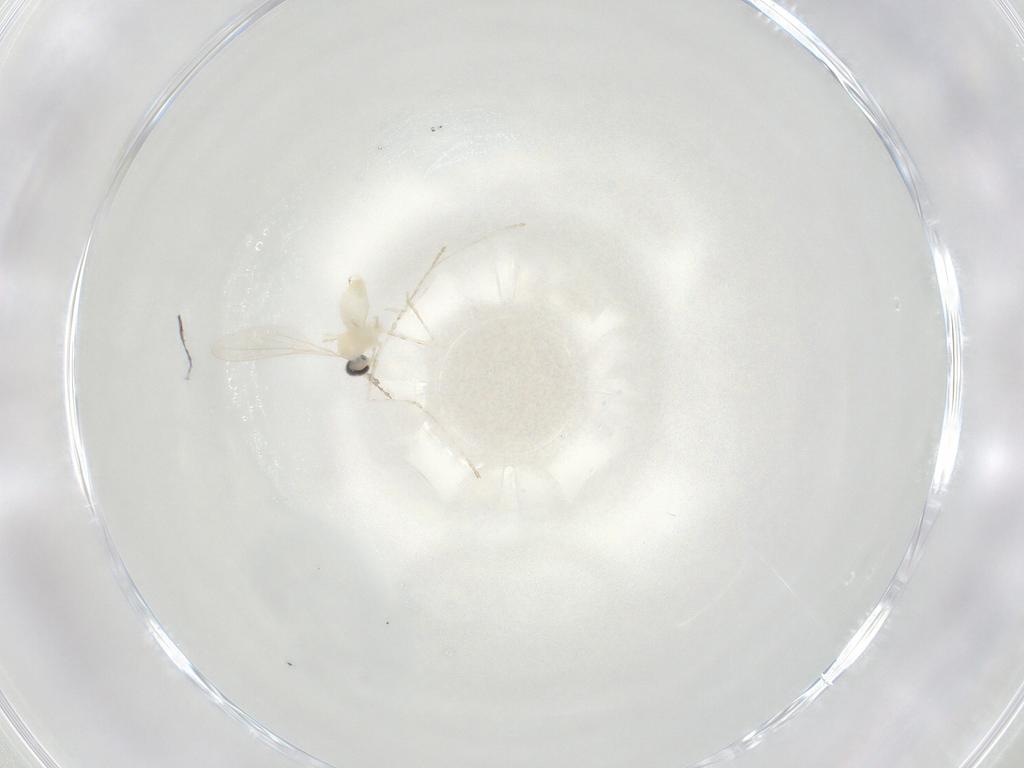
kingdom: Animalia
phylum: Arthropoda
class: Insecta
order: Diptera
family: Cecidomyiidae
